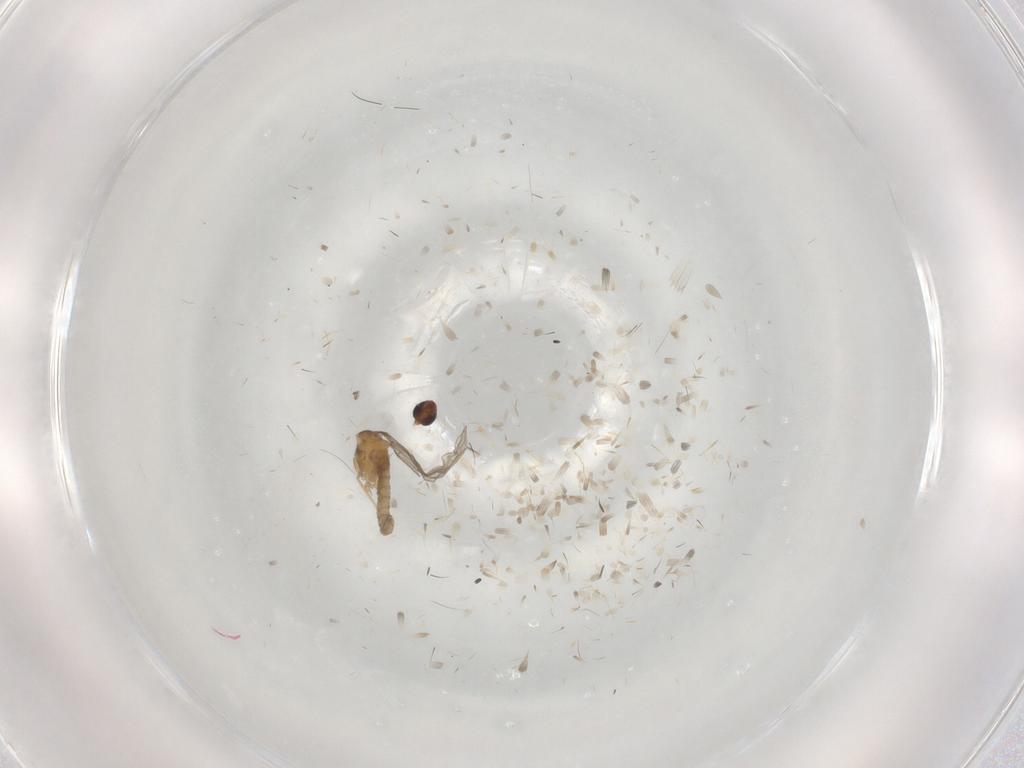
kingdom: Animalia
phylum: Arthropoda
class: Insecta
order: Diptera
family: Cecidomyiidae
